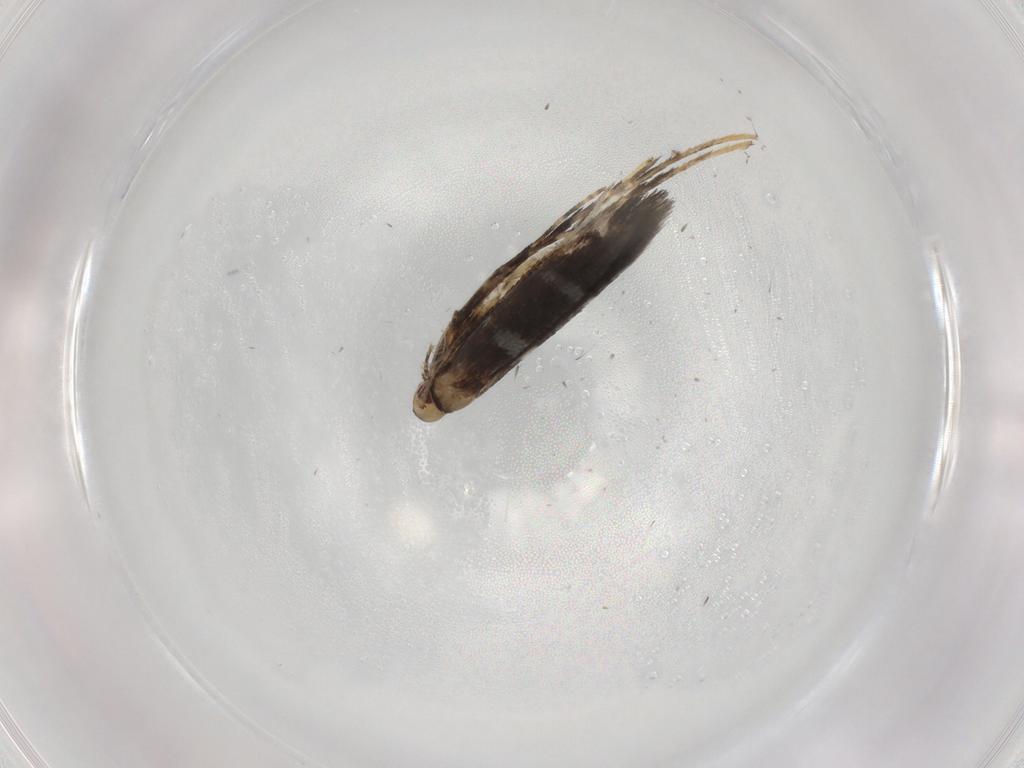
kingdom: Animalia
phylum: Arthropoda
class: Insecta
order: Lepidoptera
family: Gracillariidae
